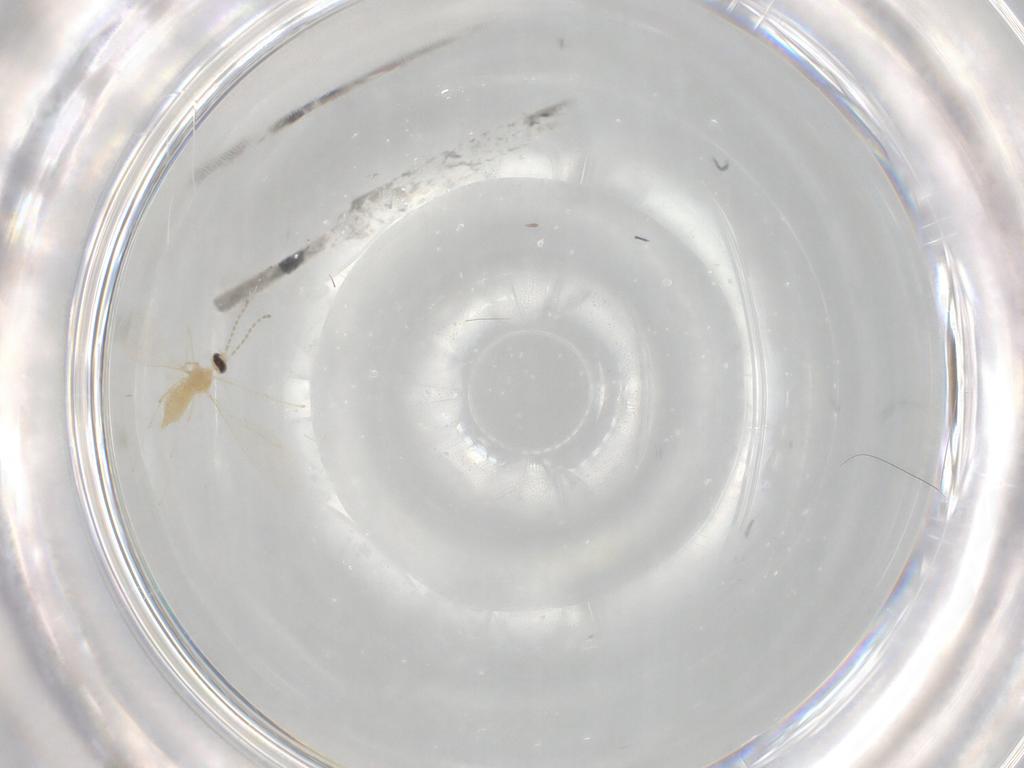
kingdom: Animalia
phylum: Arthropoda
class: Insecta
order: Diptera
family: Cecidomyiidae
